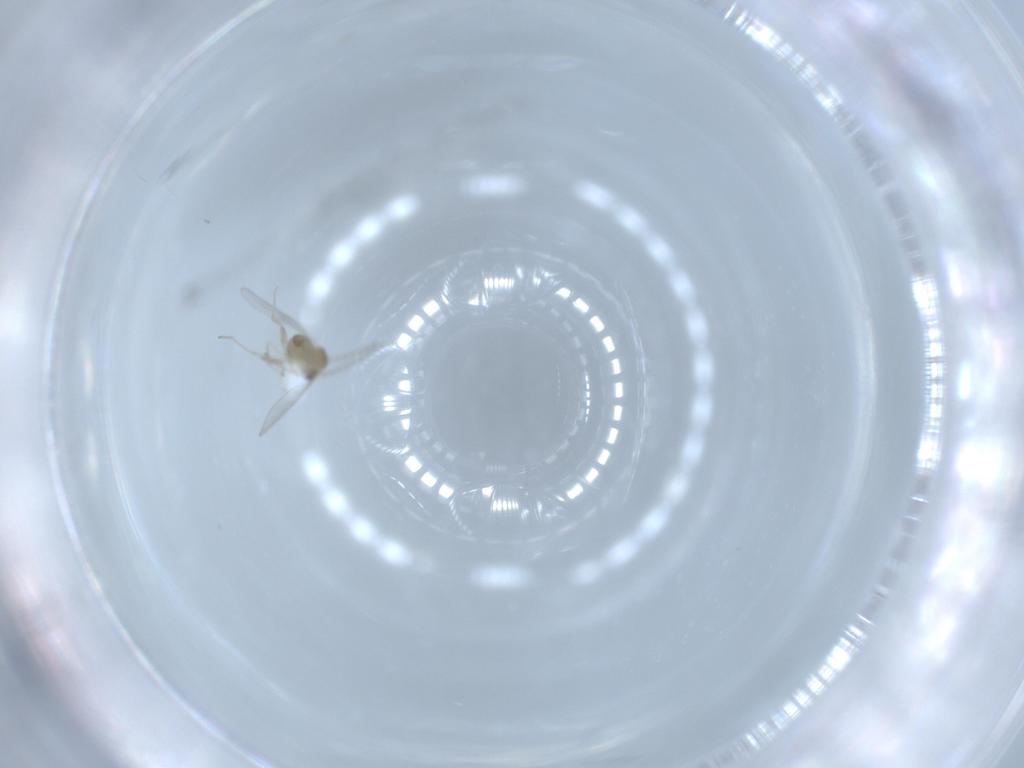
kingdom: Animalia
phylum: Arthropoda
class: Insecta
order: Diptera
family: Cecidomyiidae
